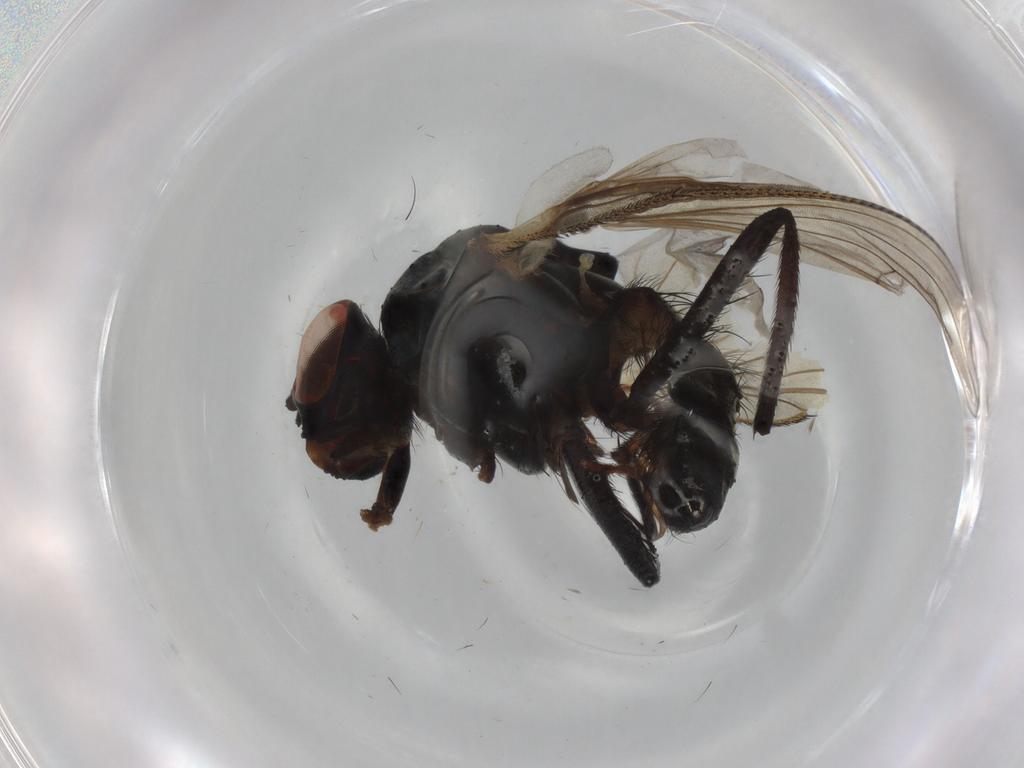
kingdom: Animalia
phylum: Arthropoda
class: Insecta
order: Diptera
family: Anthomyiidae
